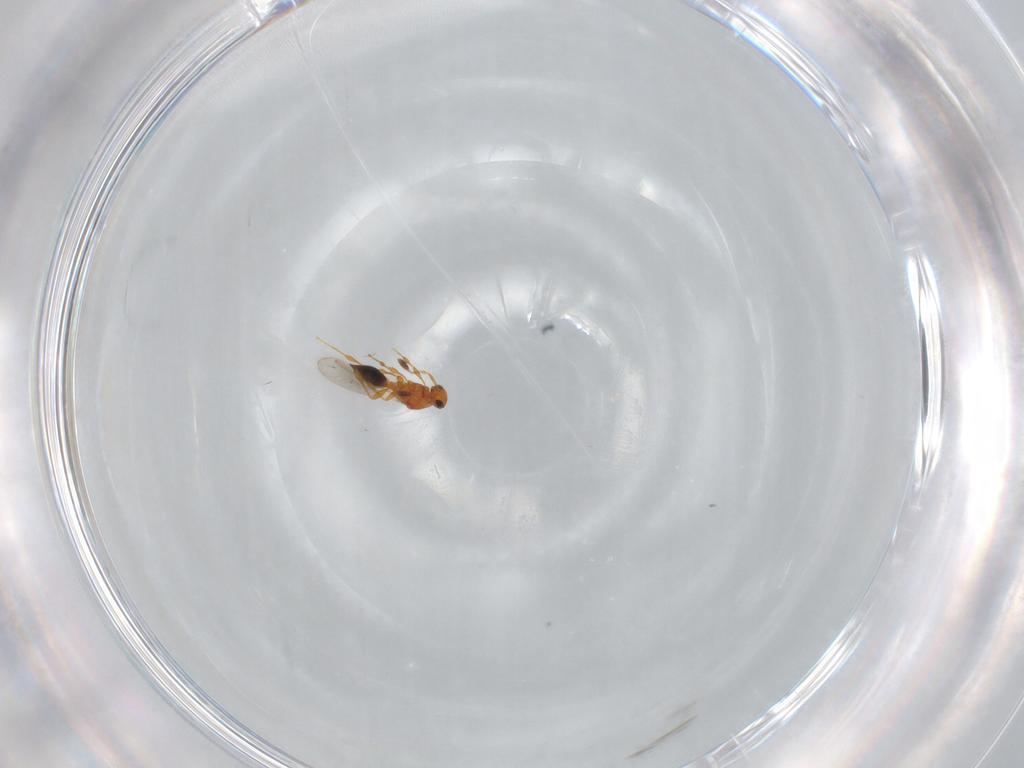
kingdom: Animalia
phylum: Arthropoda
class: Insecta
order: Hymenoptera
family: Platygastridae
